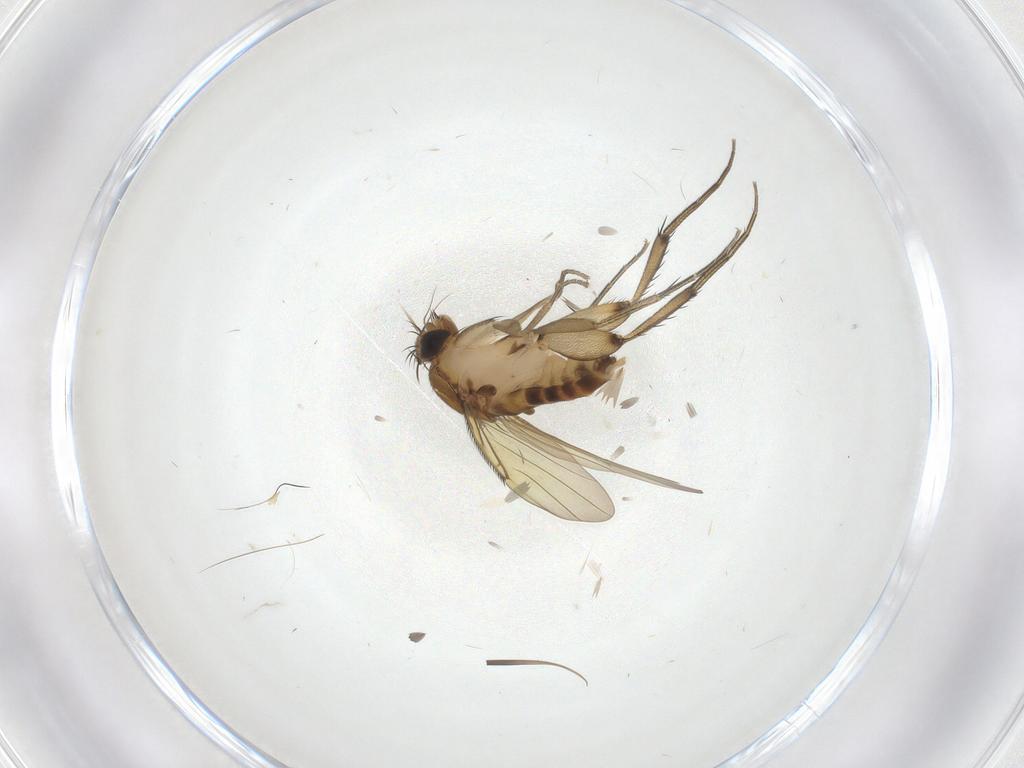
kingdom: Animalia
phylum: Arthropoda
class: Insecta
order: Diptera
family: Phoridae
